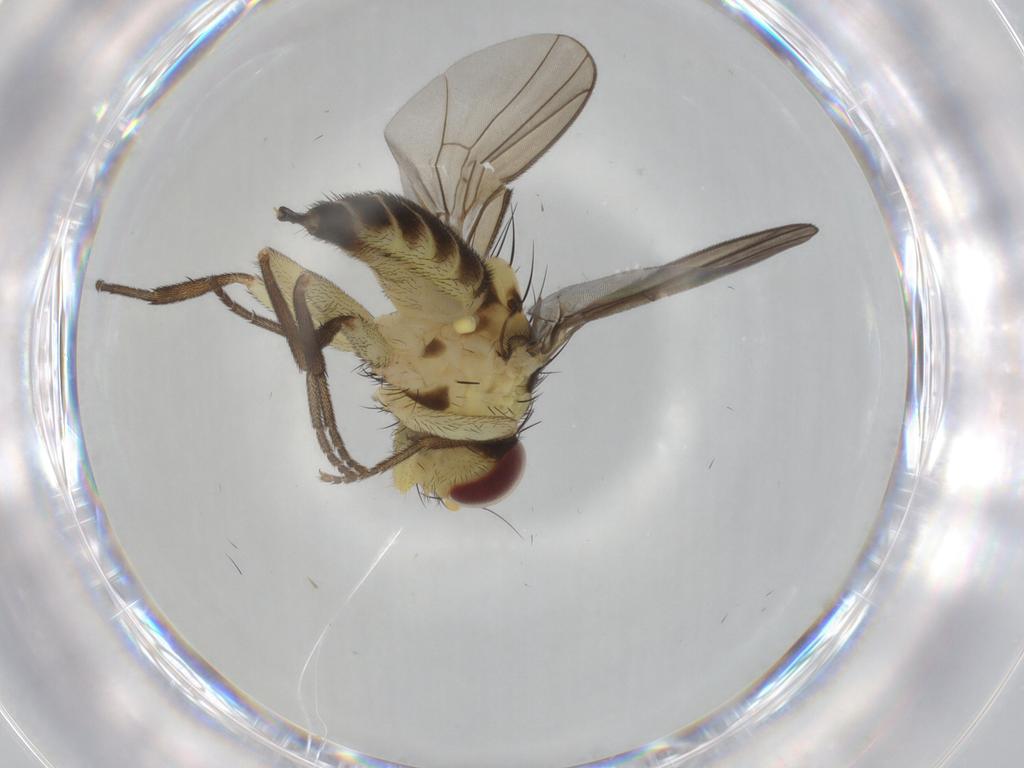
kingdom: Animalia
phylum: Arthropoda
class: Insecta
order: Diptera
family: Agromyzidae
